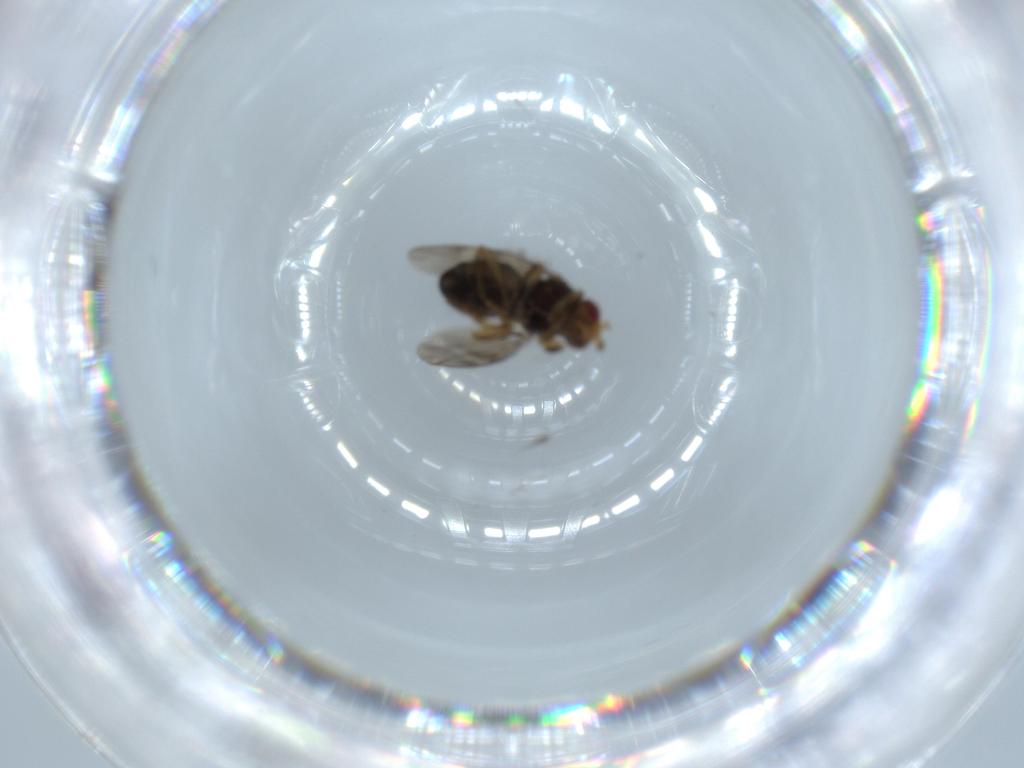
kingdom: Animalia
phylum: Arthropoda
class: Insecta
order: Diptera
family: Sphaeroceridae
